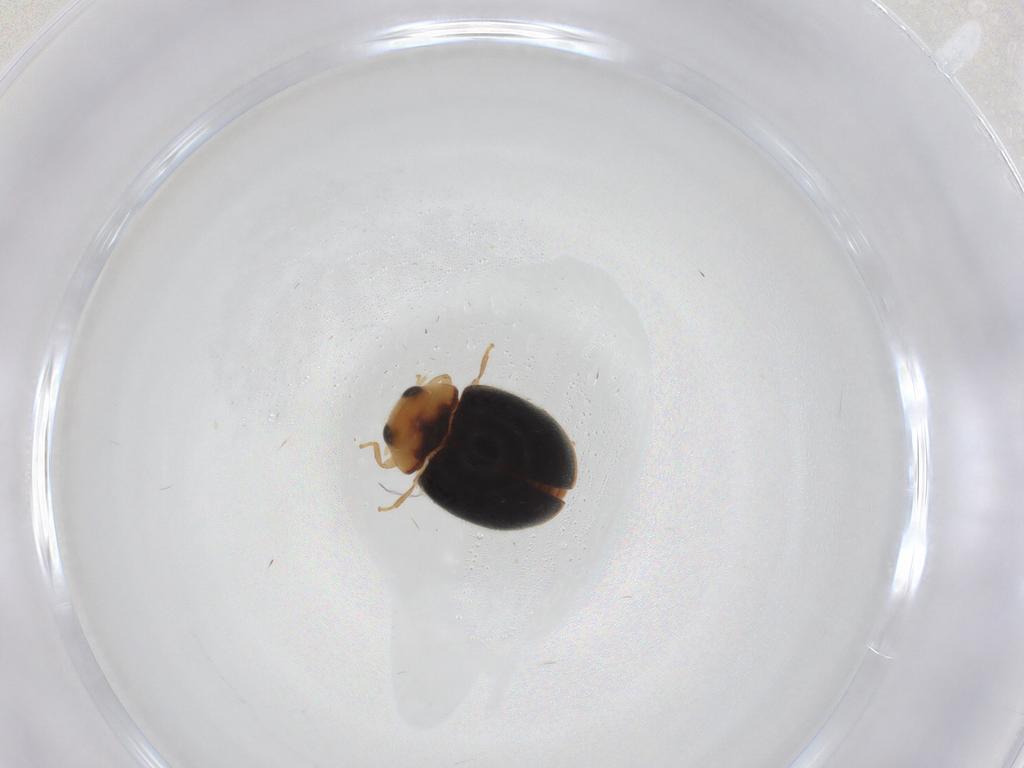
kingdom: Animalia
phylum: Arthropoda
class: Insecta
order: Coleoptera
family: Coccinellidae
